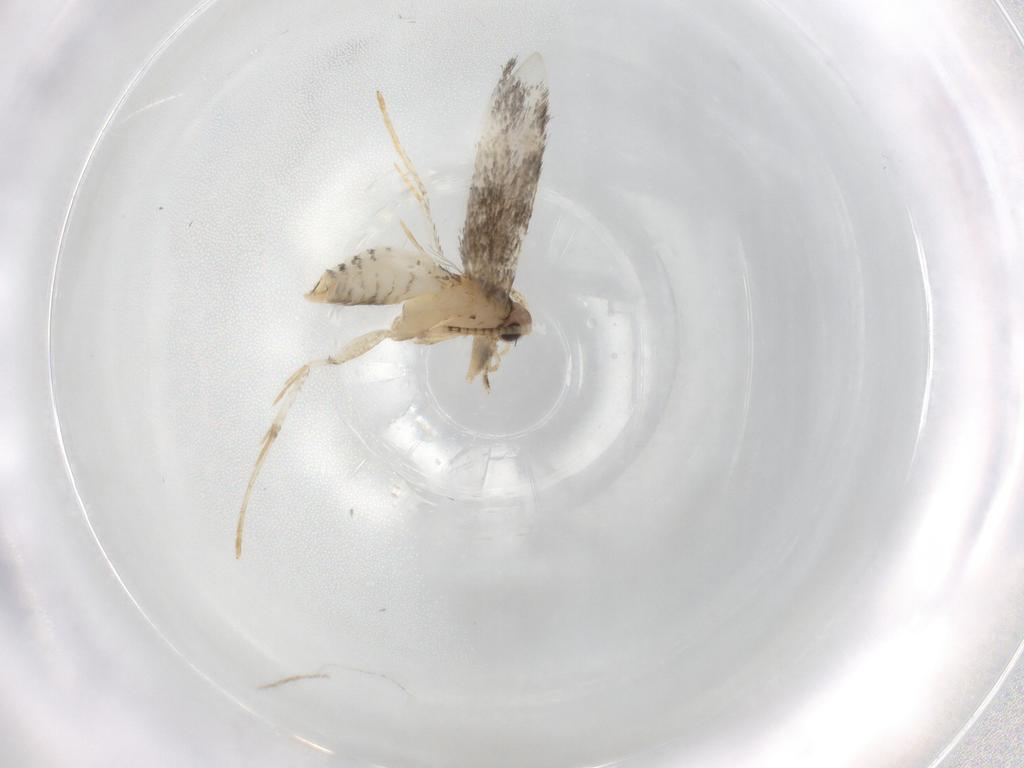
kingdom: Animalia
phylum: Arthropoda
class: Insecta
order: Lepidoptera
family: Tineidae
